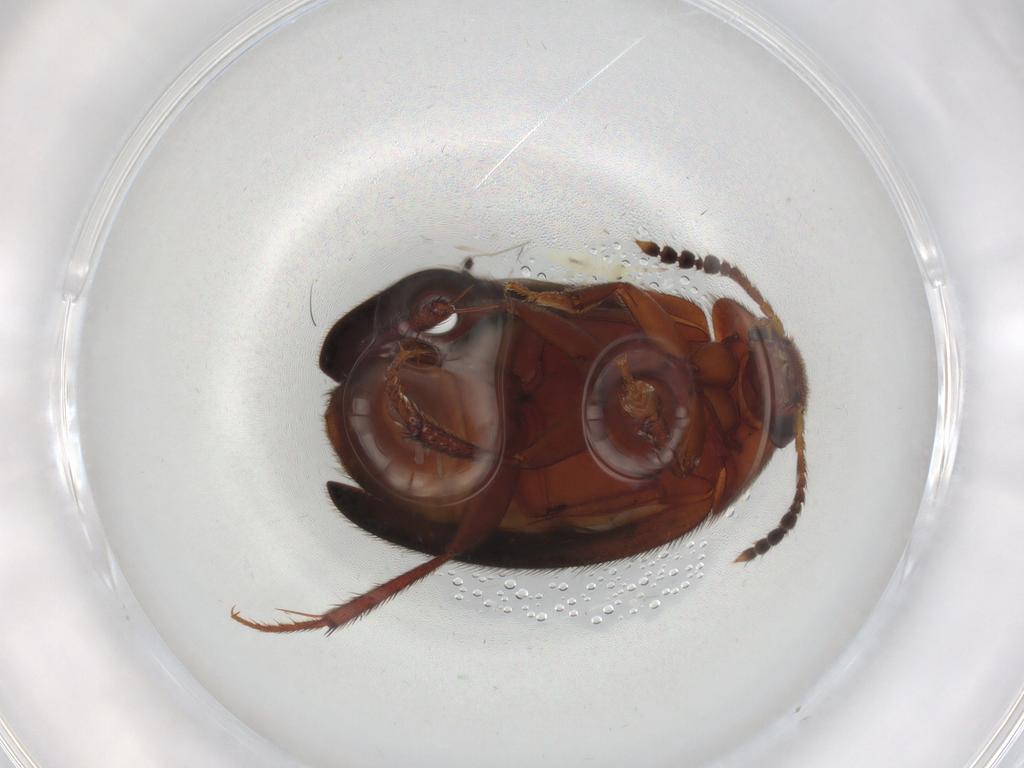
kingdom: Animalia
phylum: Arthropoda
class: Insecta
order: Coleoptera
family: Leiodidae
